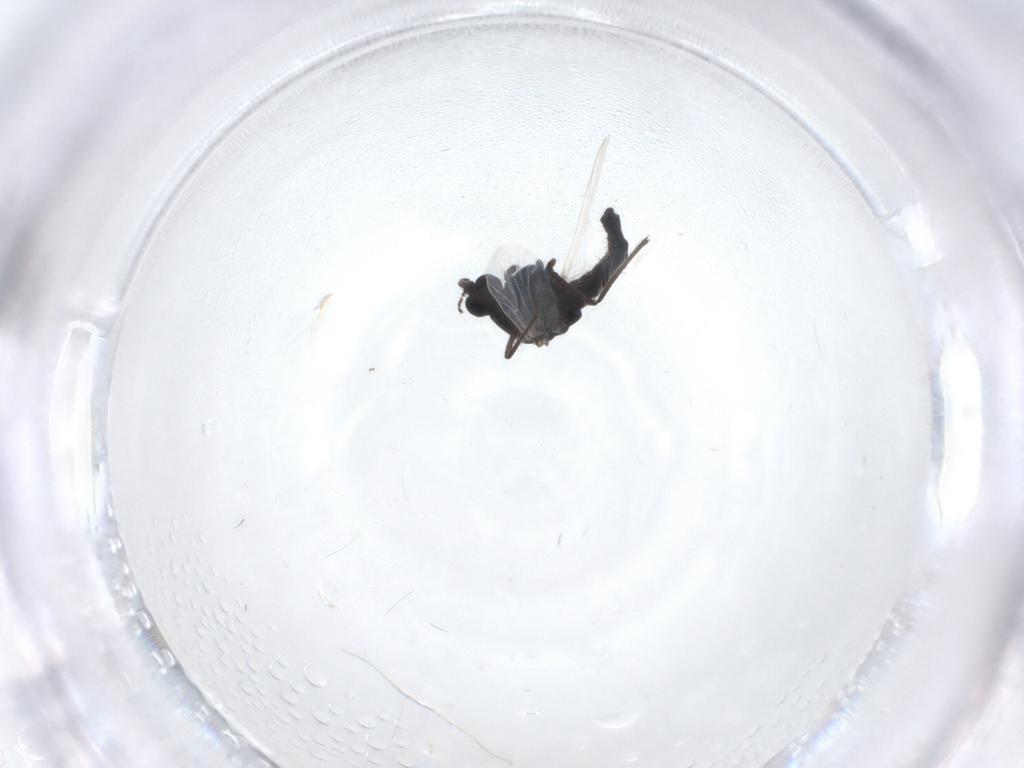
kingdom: Animalia
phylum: Arthropoda
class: Insecta
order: Diptera
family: Chironomidae
